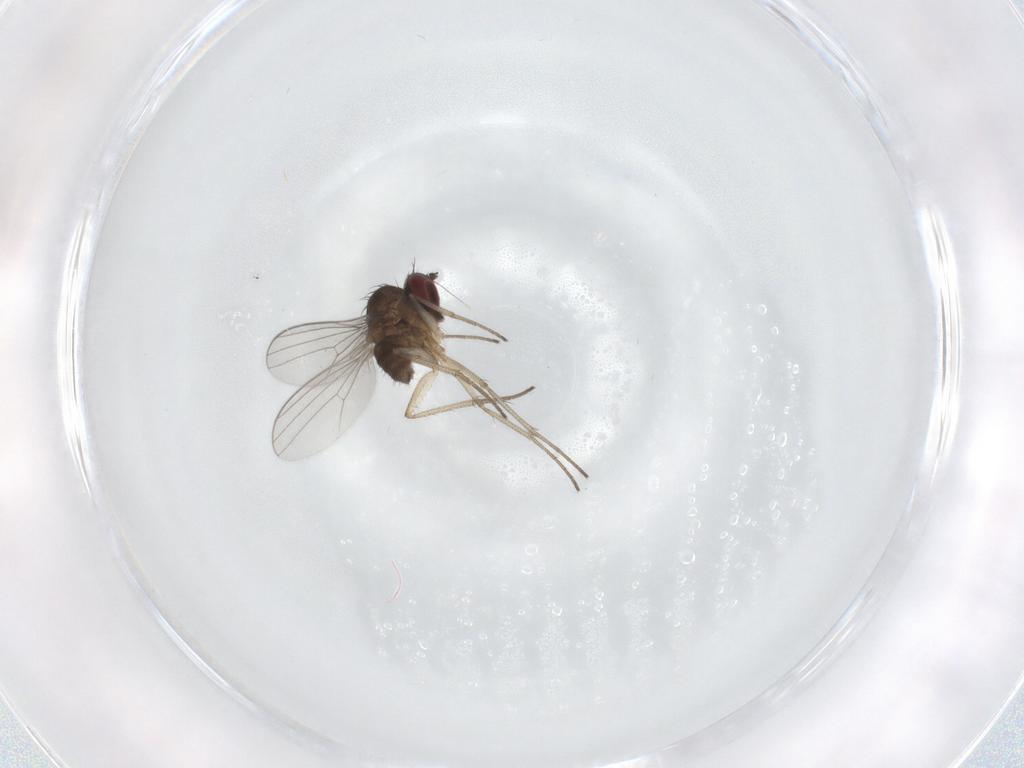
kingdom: Animalia
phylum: Arthropoda
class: Insecta
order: Diptera
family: Dolichopodidae
